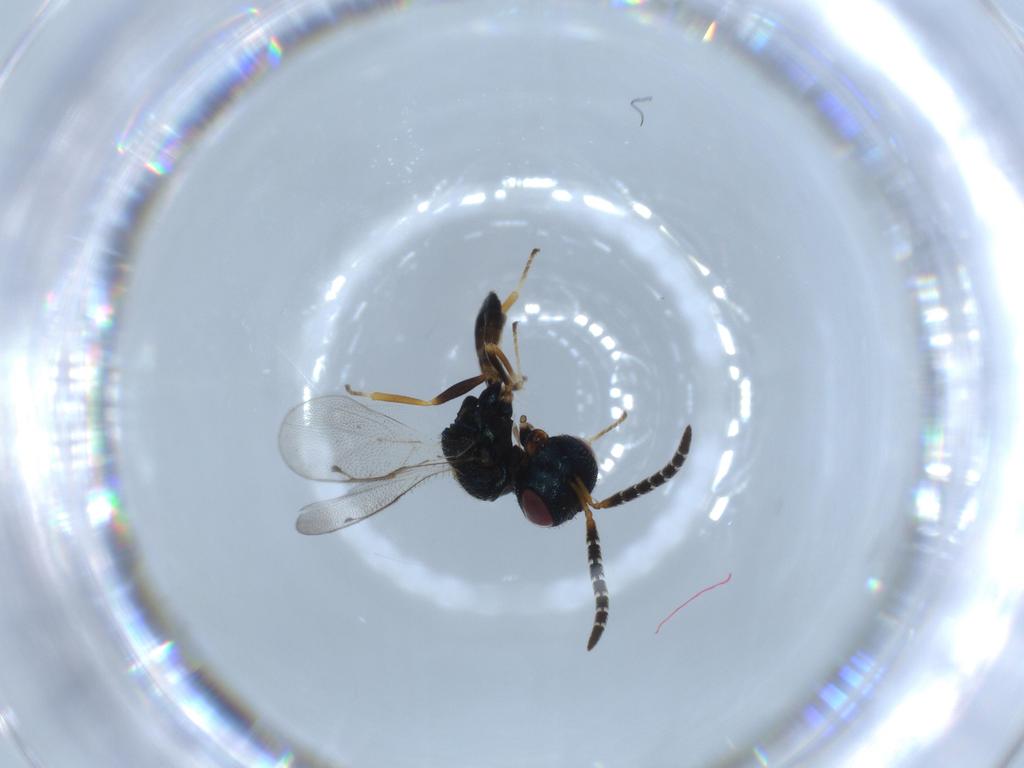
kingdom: Animalia
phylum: Arthropoda
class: Insecta
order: Hymenoptera
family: Agaonidae
